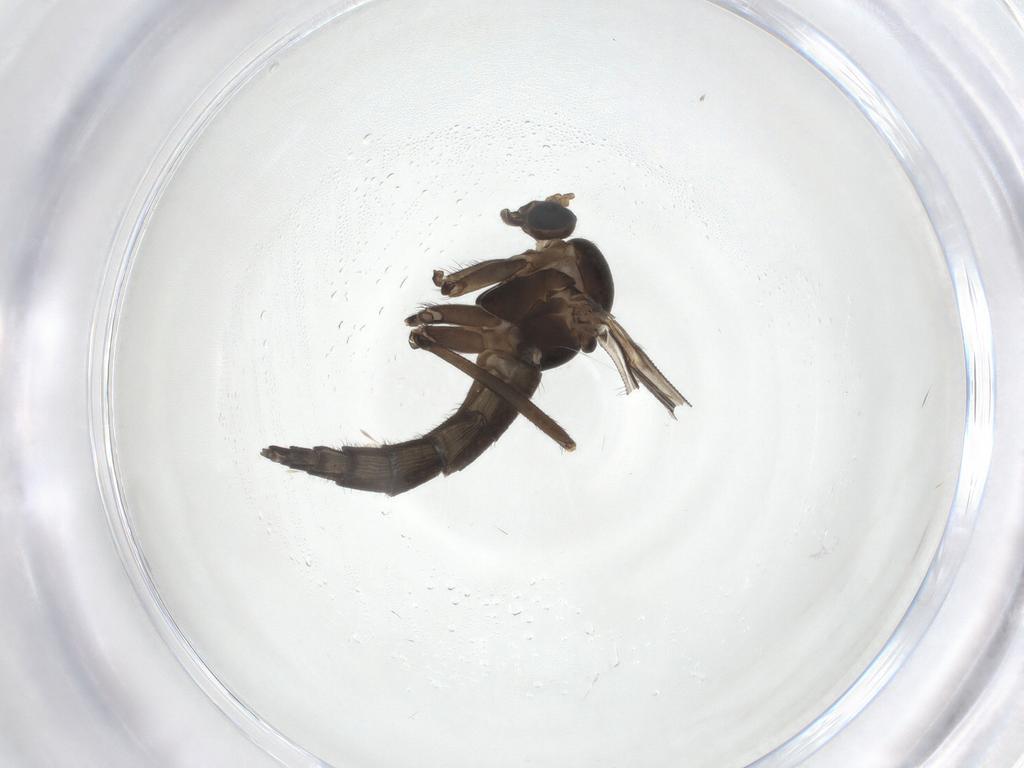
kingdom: Animalia
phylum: Arthropoda
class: Insecta
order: Diptera
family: Sciaridae
